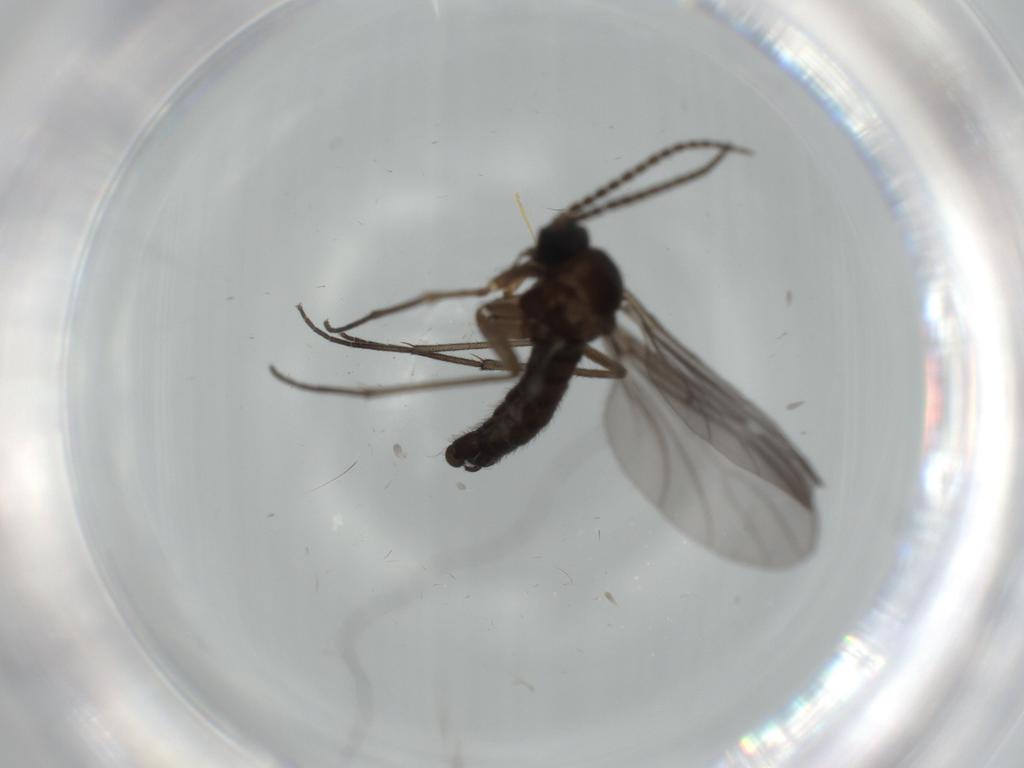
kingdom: Animalia
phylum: Arthropoda
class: Insecta
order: Diptera
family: Sciaridae
